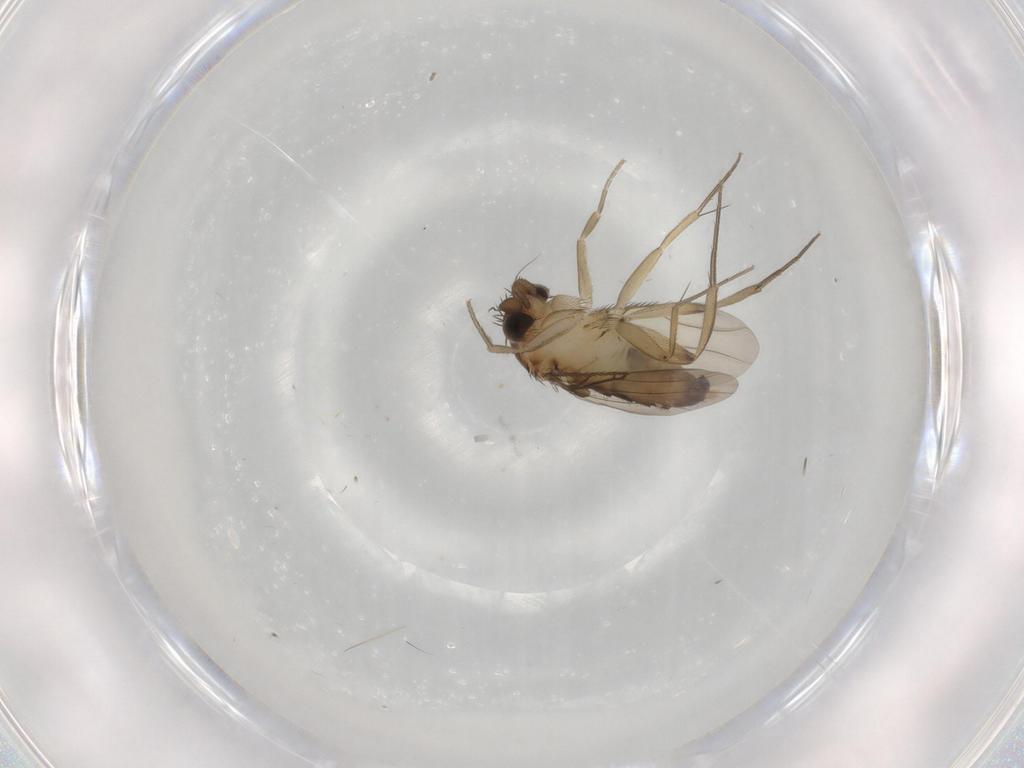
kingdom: Animalia
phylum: Arthropoda
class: Insecta
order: Diptera
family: Phoridae
